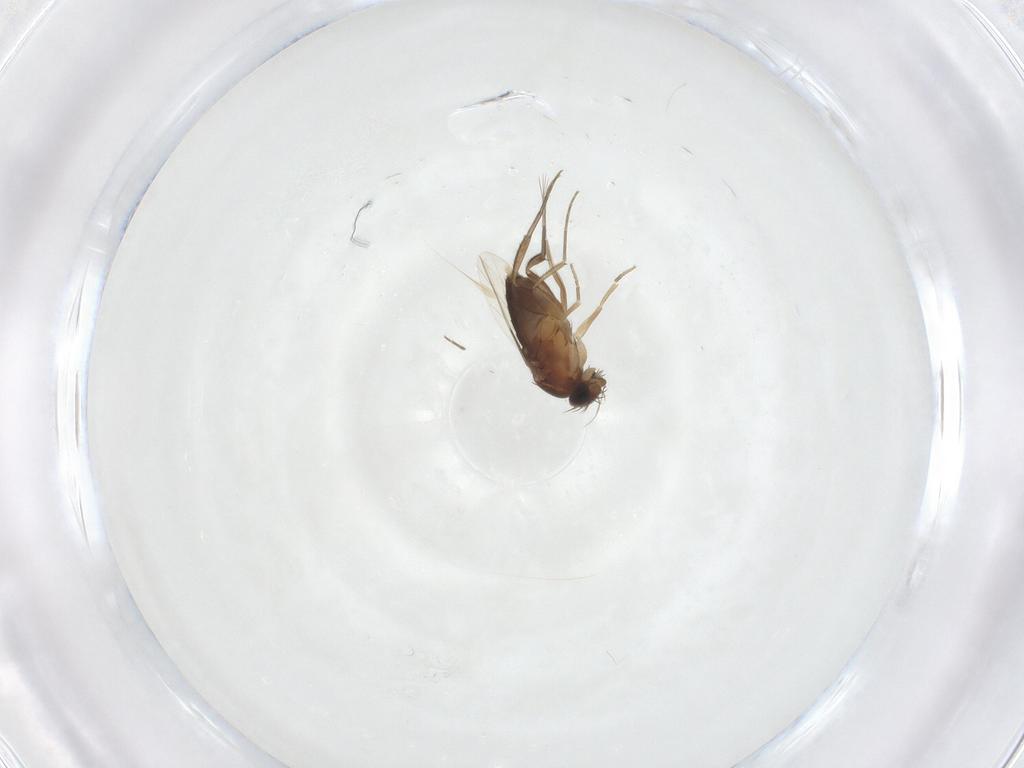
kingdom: Animalia
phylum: Arthropoda
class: Insecta
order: Diptera
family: Phoridae
